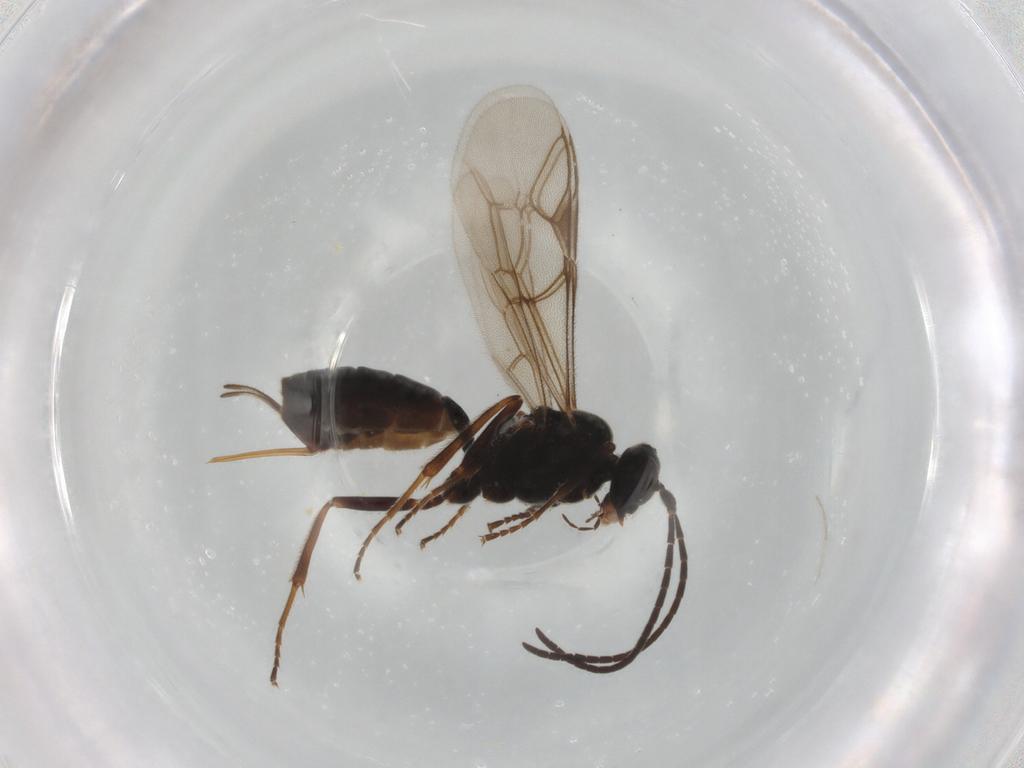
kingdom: Animalia
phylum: Arthropoda
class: Insecta
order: Hymenoptera
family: Ichneumonidae
